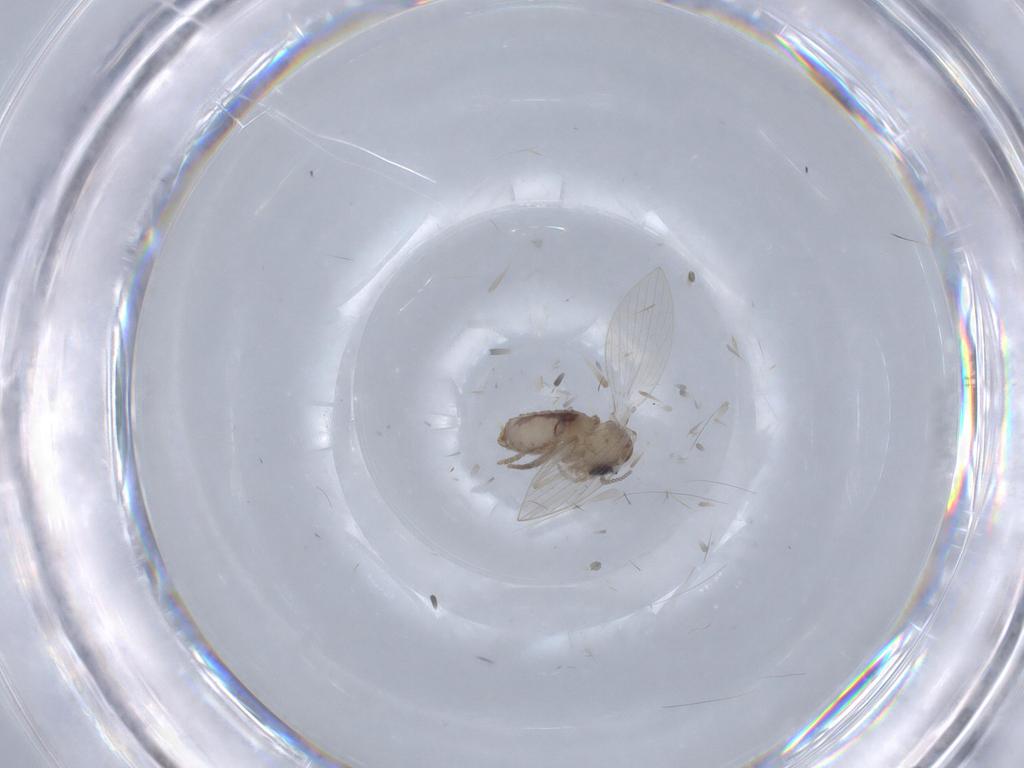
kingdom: Animalia
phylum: Arthropoda
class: Insecta
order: Diptera
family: Psychodidae
